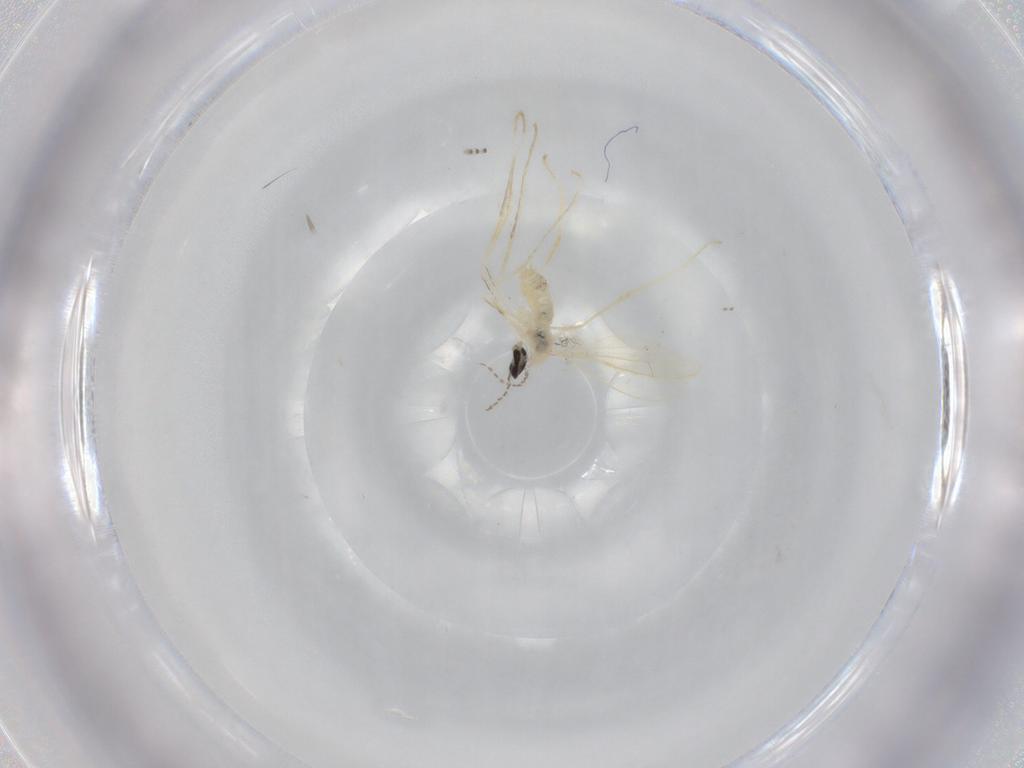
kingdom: Animalia
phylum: Arthropoda
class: Insecta
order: Diptera
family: Cecidomyiidae
